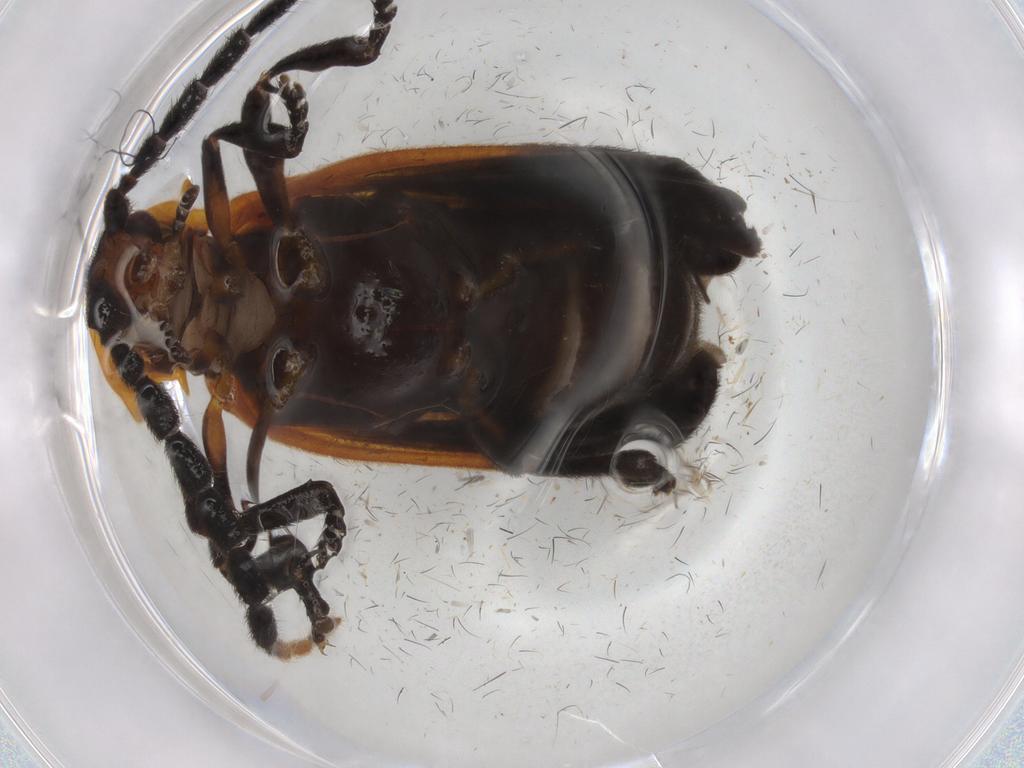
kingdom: Animalia
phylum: Arthropoda
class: Insecta
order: Coleoptera
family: Lycidae
